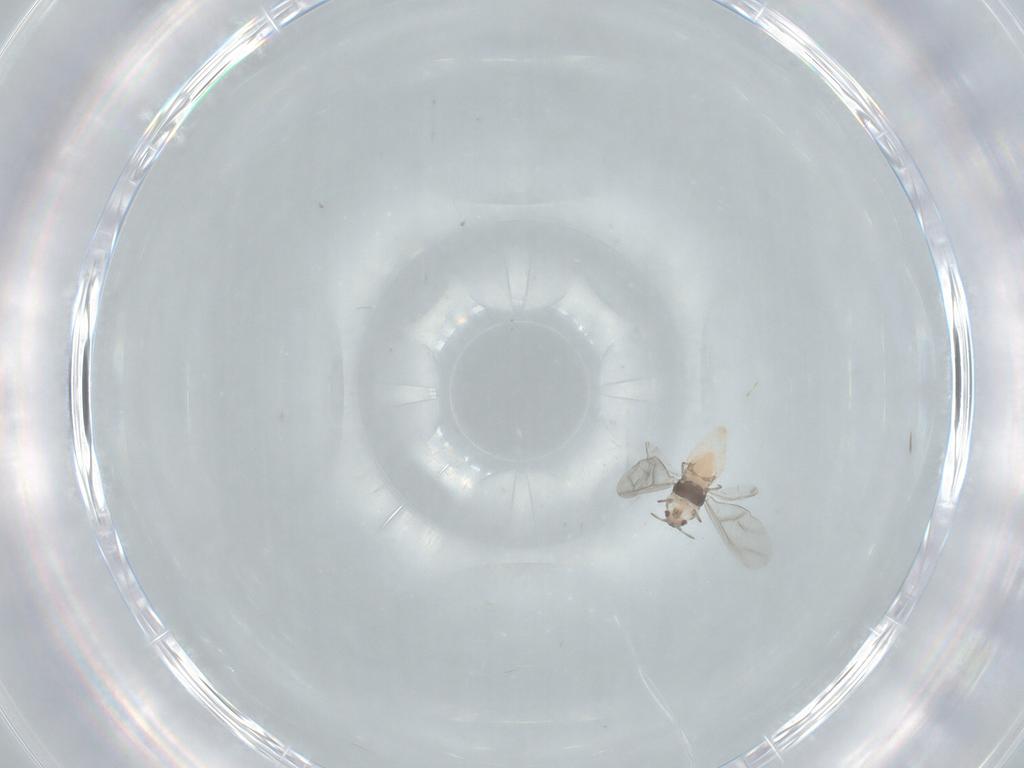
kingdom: Animalia
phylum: Arthropoda
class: Insecta
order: Hemiptera
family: Phylloxeridae
